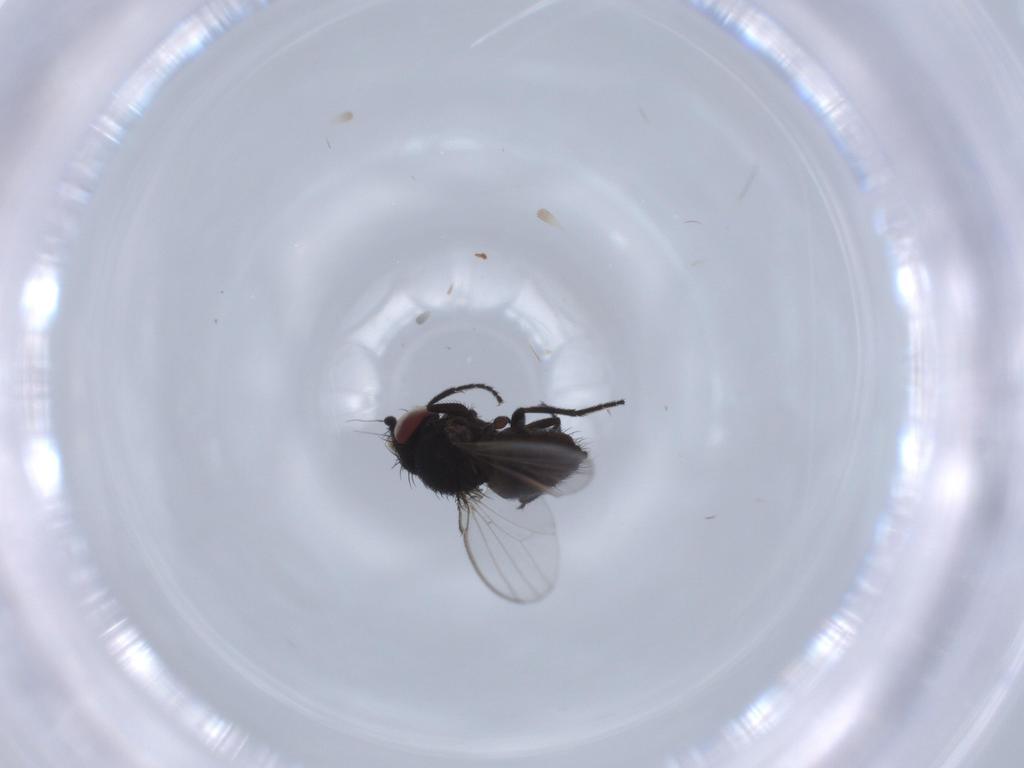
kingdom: Animalia
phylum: Arthropoda
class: Insecta
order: Diptera
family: Milichiidae
